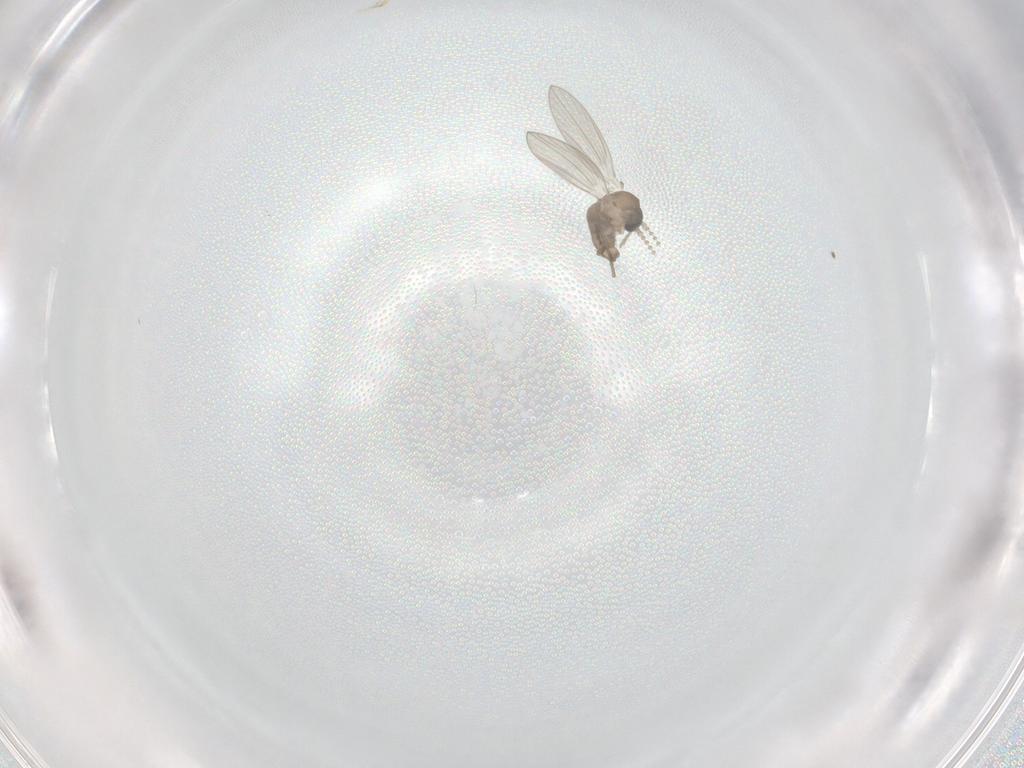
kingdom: Animalia
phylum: Arthropoda
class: Insecta
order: Diptera
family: Psychodidae
